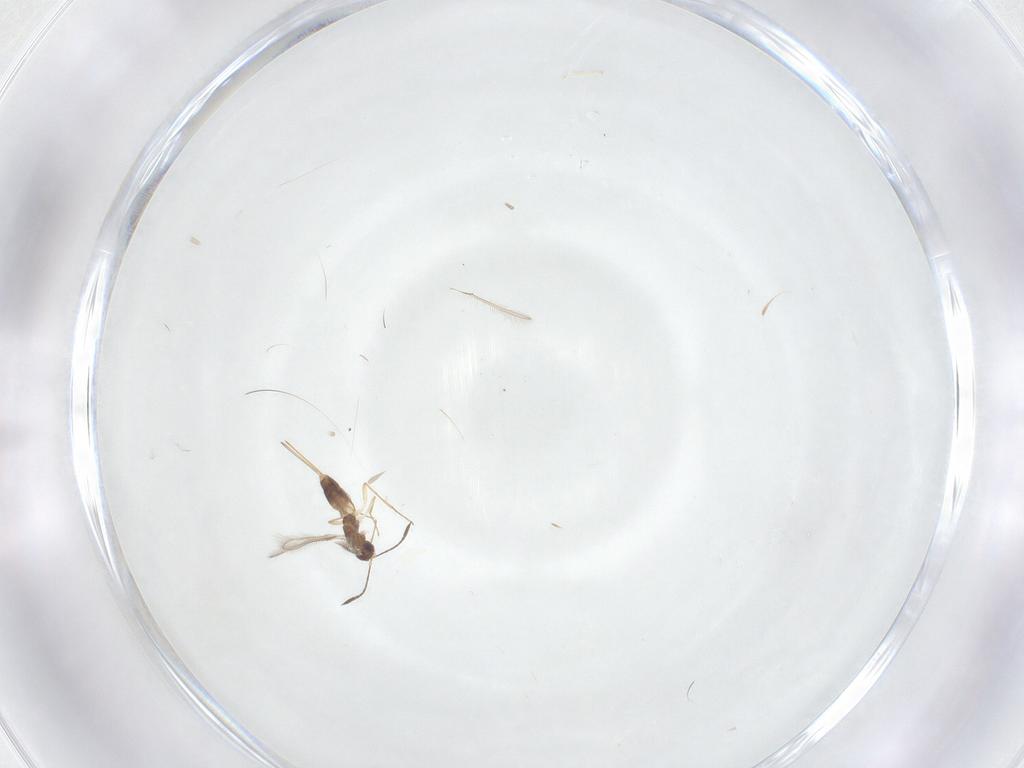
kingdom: Animalia
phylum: Arthropoda
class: Insecta
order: Hymenoptera
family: Mymaridae
